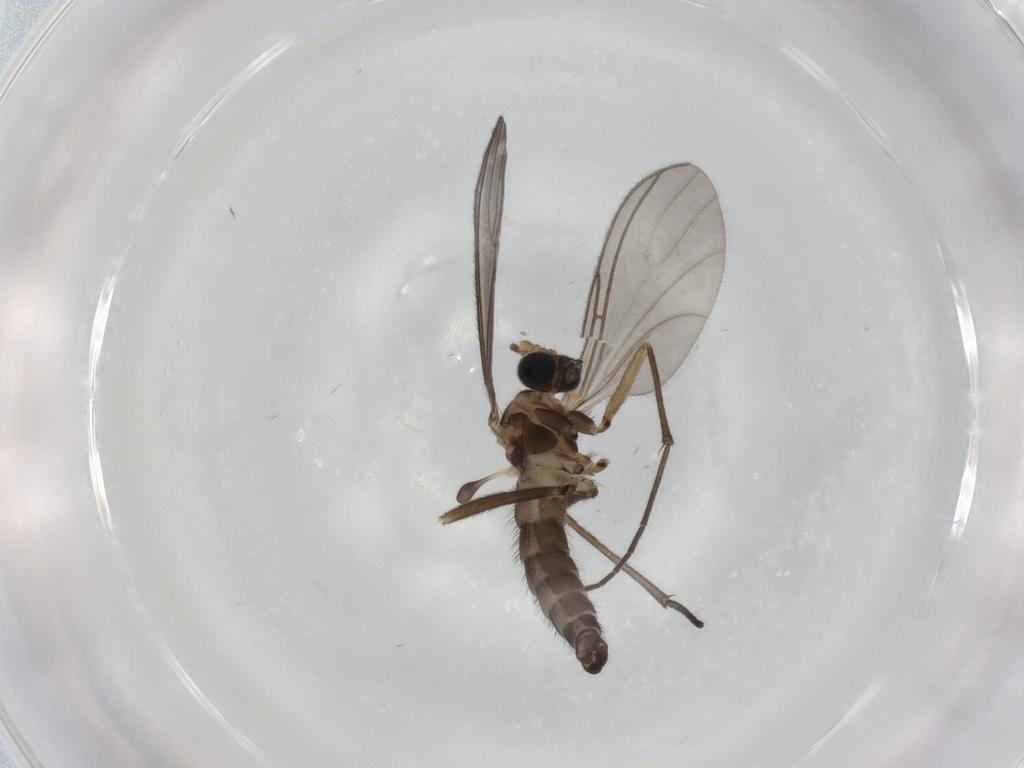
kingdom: Animalia
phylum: Arthropoda
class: Insecta
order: Diptera
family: Sciaridae
